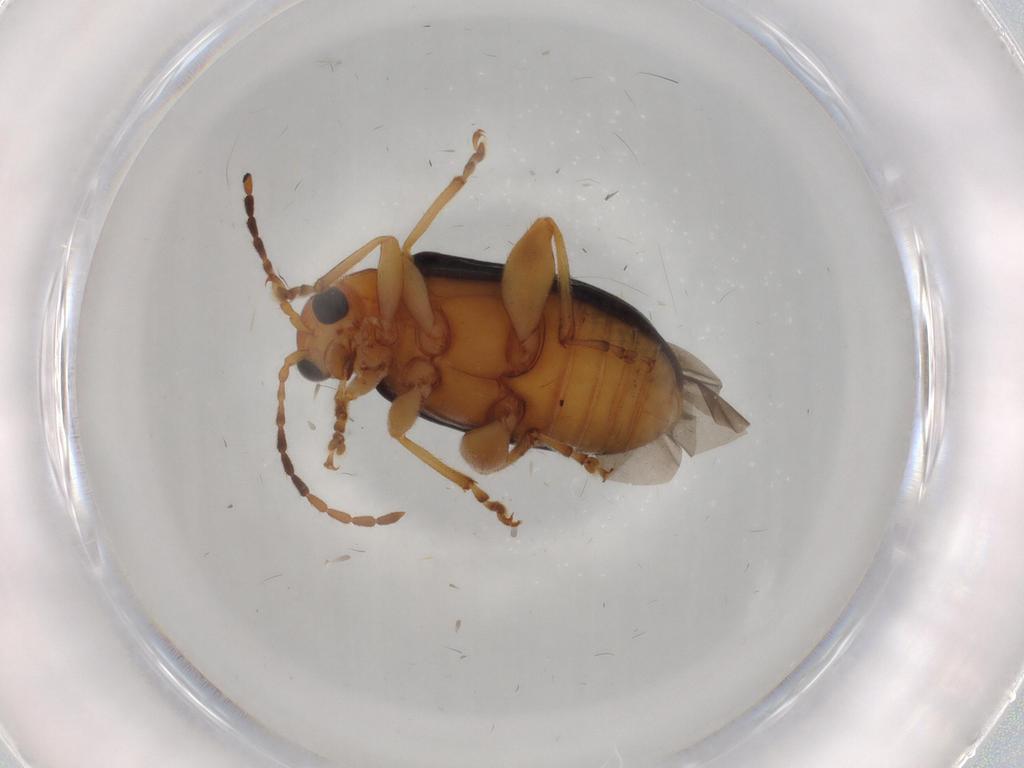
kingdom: Animalia
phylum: Arthropoda
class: Insecta
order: Coleoptera
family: Chrysomelidae
